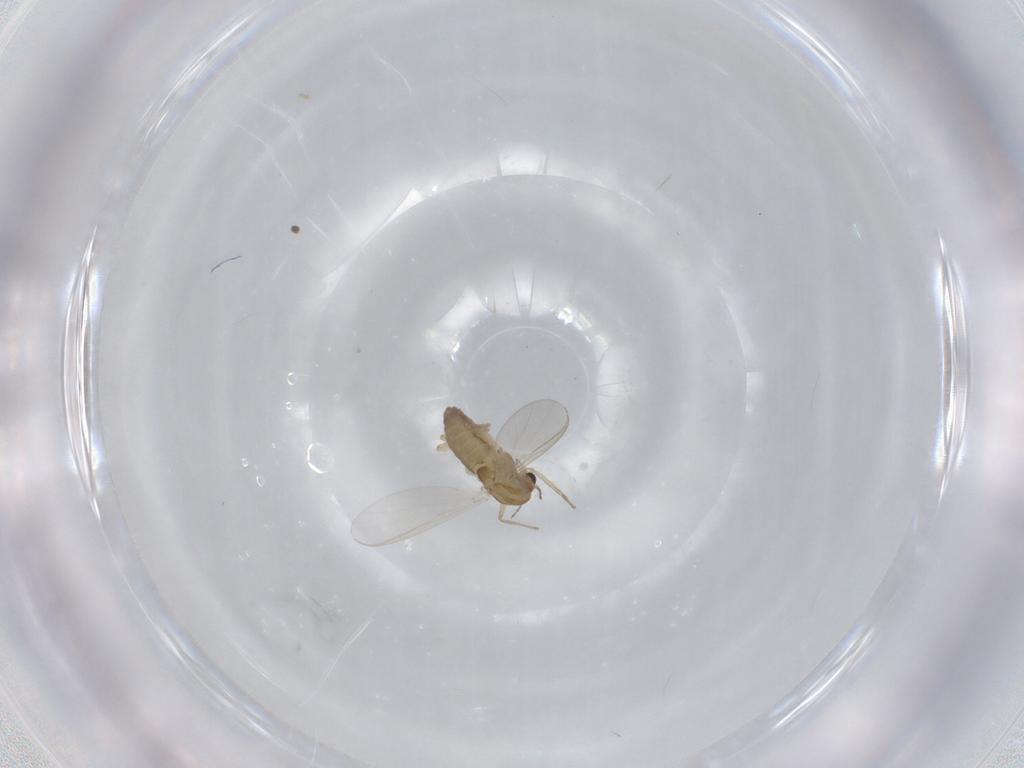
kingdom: Animalia
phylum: Arthropoda
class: Insecta
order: Diptera
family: Chironomidae
